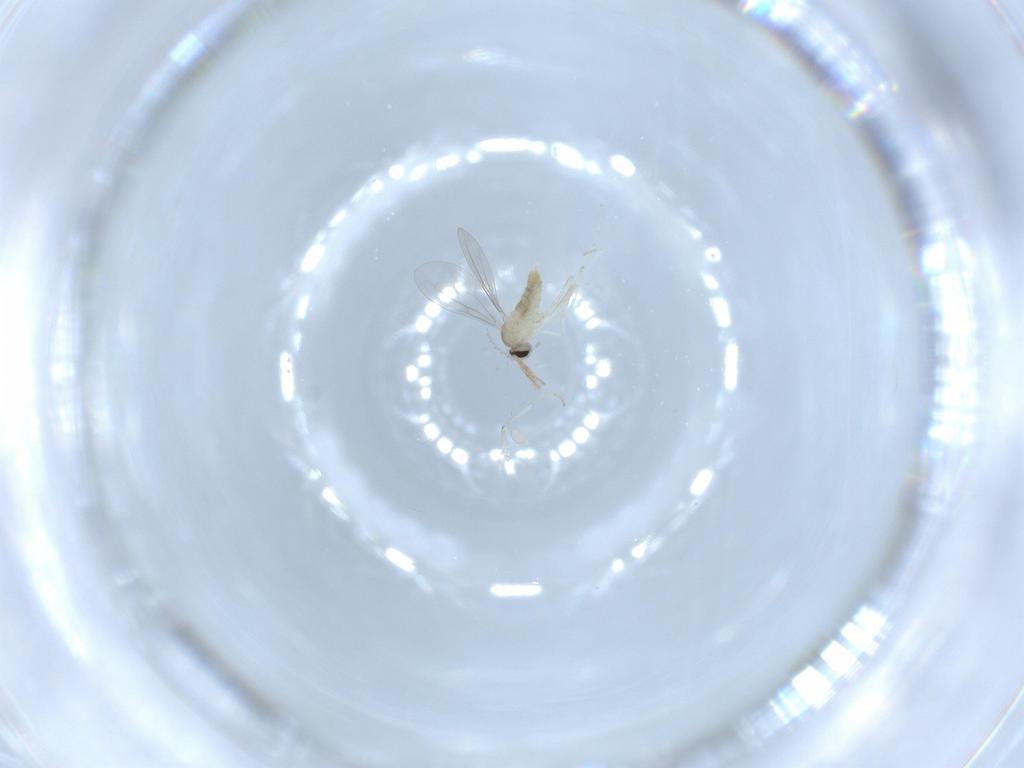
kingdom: Animalia
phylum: Arthropoda
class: Insecta
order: Diptera
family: Cecidomyiidae
